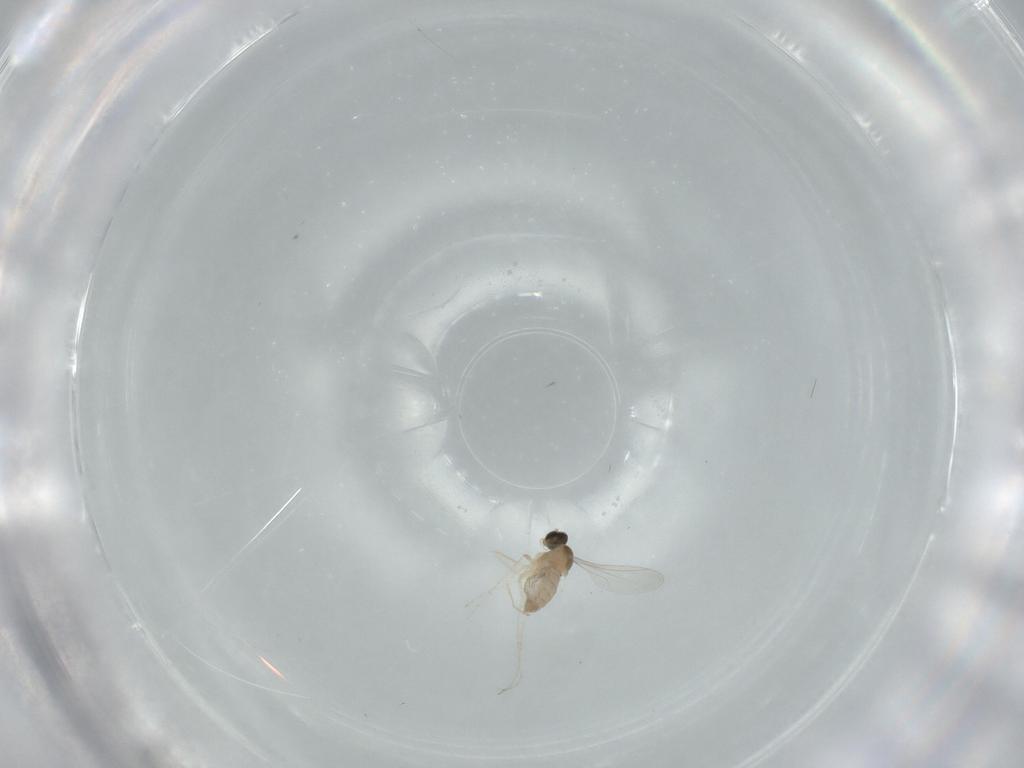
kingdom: Animalia
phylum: Arthropoda
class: Insecta
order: Diptera
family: Cecidomyiidae
